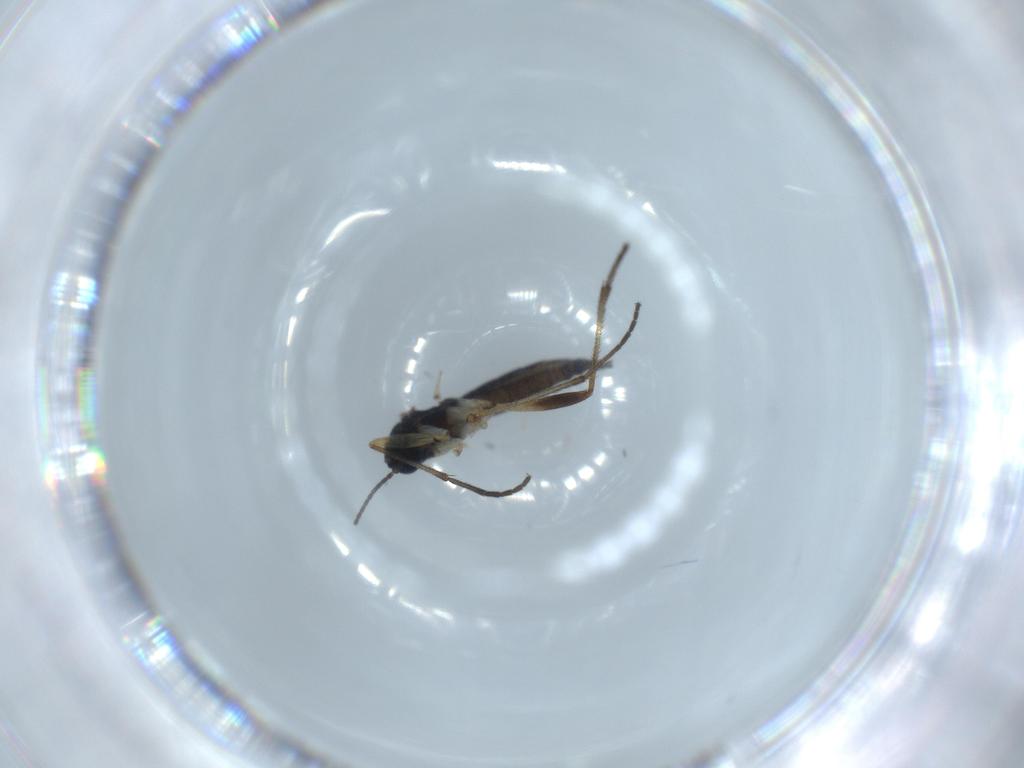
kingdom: Animalia
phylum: Arthropoda
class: Insecta
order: Diptera
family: Sciaridae
